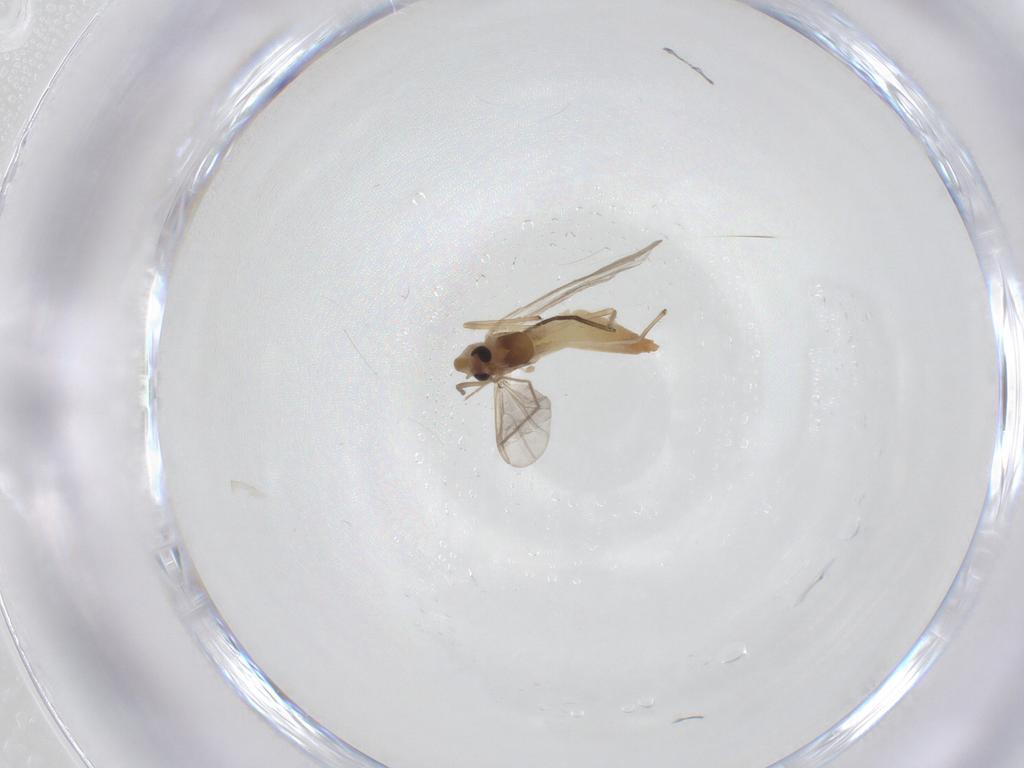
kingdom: Animalia
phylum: Arthropoda
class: Insecta
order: Diptera
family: Chironomidae
